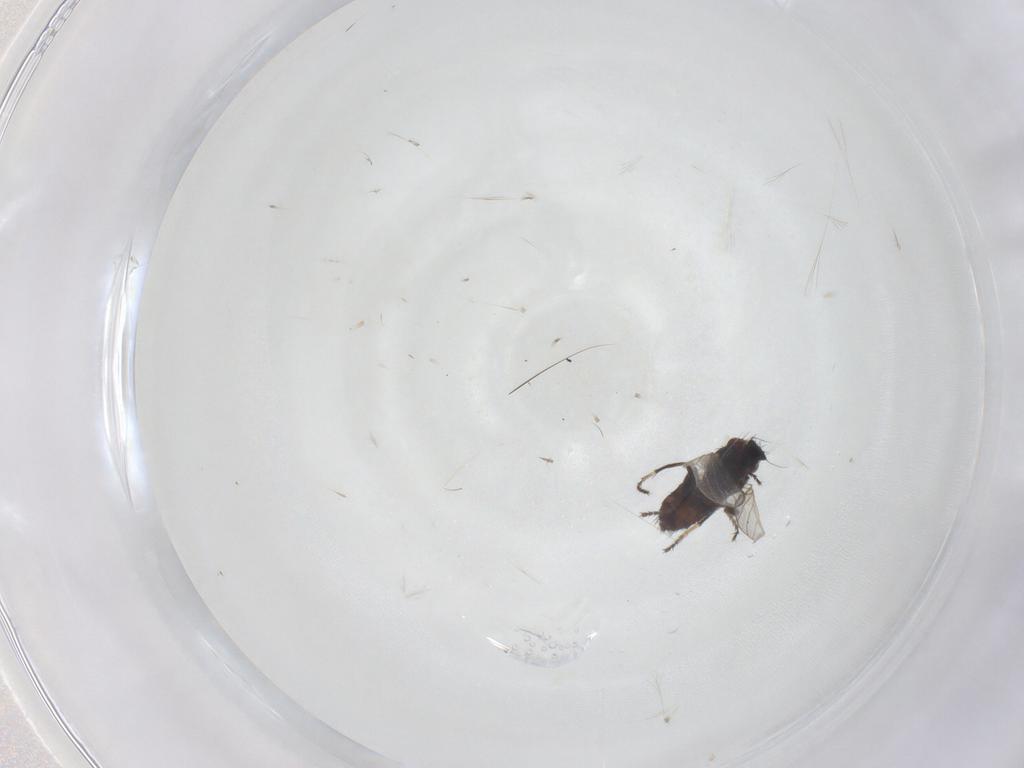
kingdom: Animalia
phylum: Arthropoda
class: Insecta
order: Diptera
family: Milichiidae
